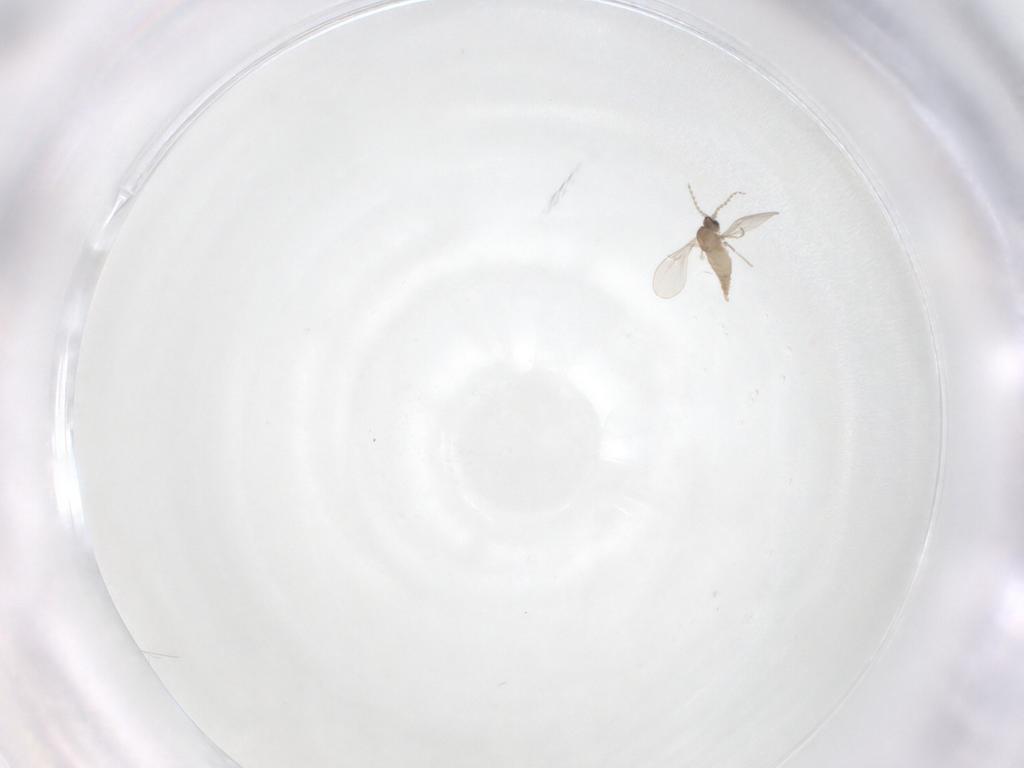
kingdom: Animalia
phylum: Arthropoda
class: Insecta
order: Diptera
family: Cecidomyiidae
